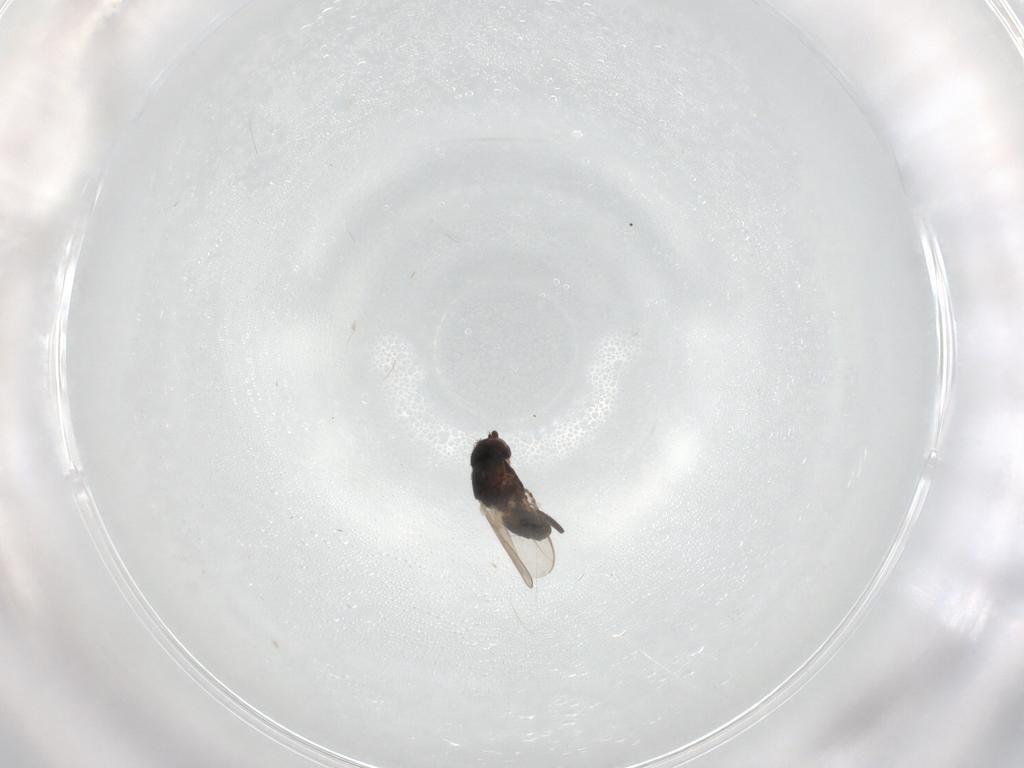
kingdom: Animalia
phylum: Arthropoda
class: Insecta
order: Diptera
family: Sphaeroceridae
